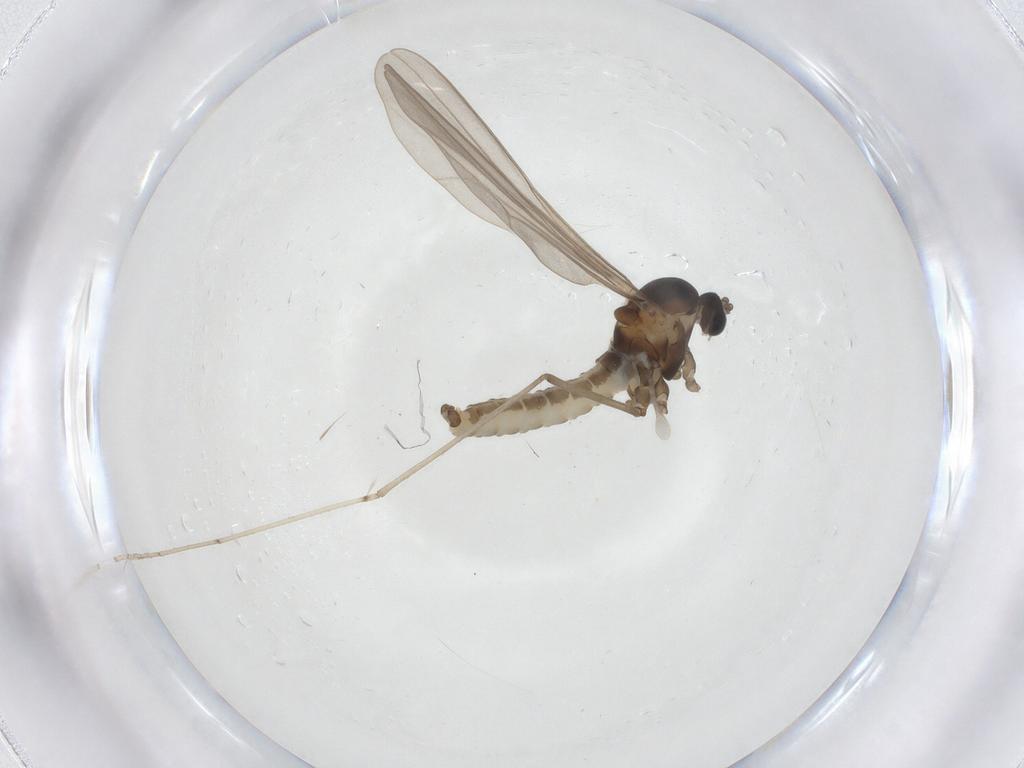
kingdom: Animalia
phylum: Arthropoda
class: Insecta
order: Diptera
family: Cecidomyiidae
